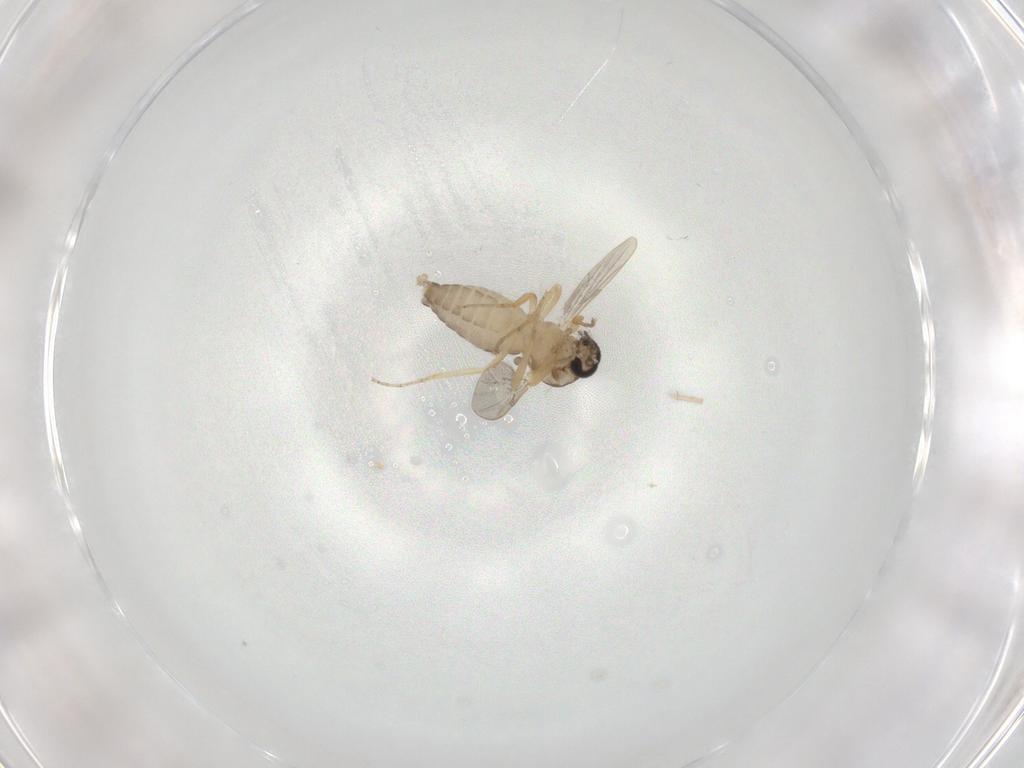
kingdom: Animalia
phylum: Arthropoda
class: Insecta
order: Diptera
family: Ceratopogonidae
